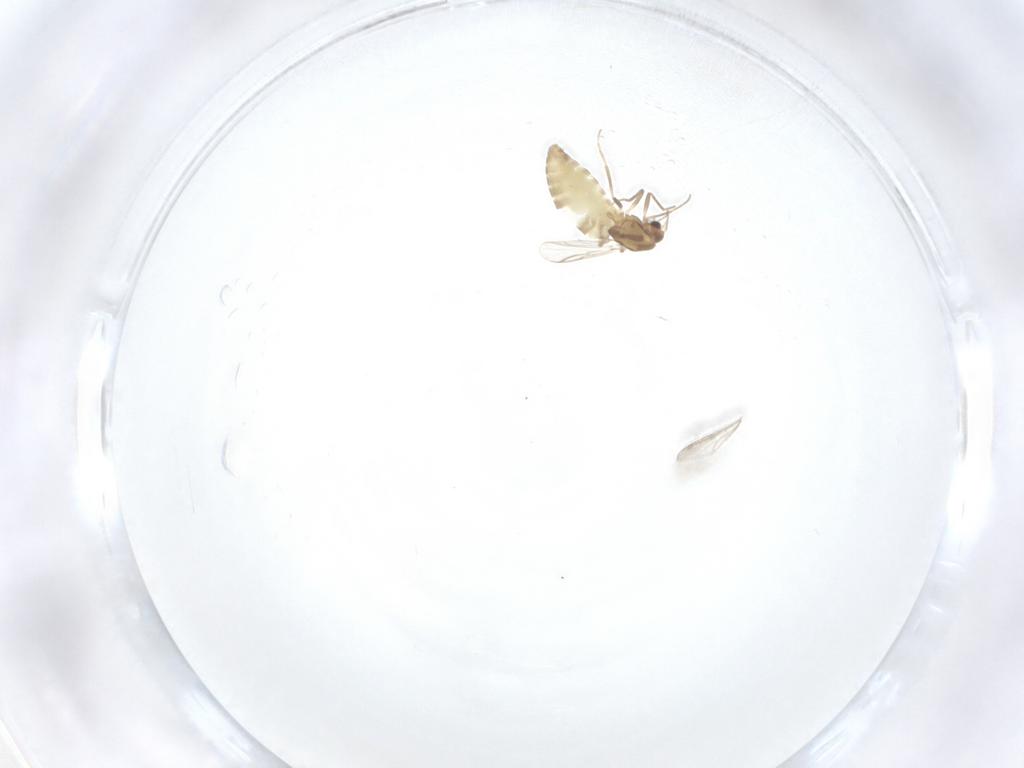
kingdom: Animalia
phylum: Arthropoda
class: Insecta
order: Diptera
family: Chironomidae
